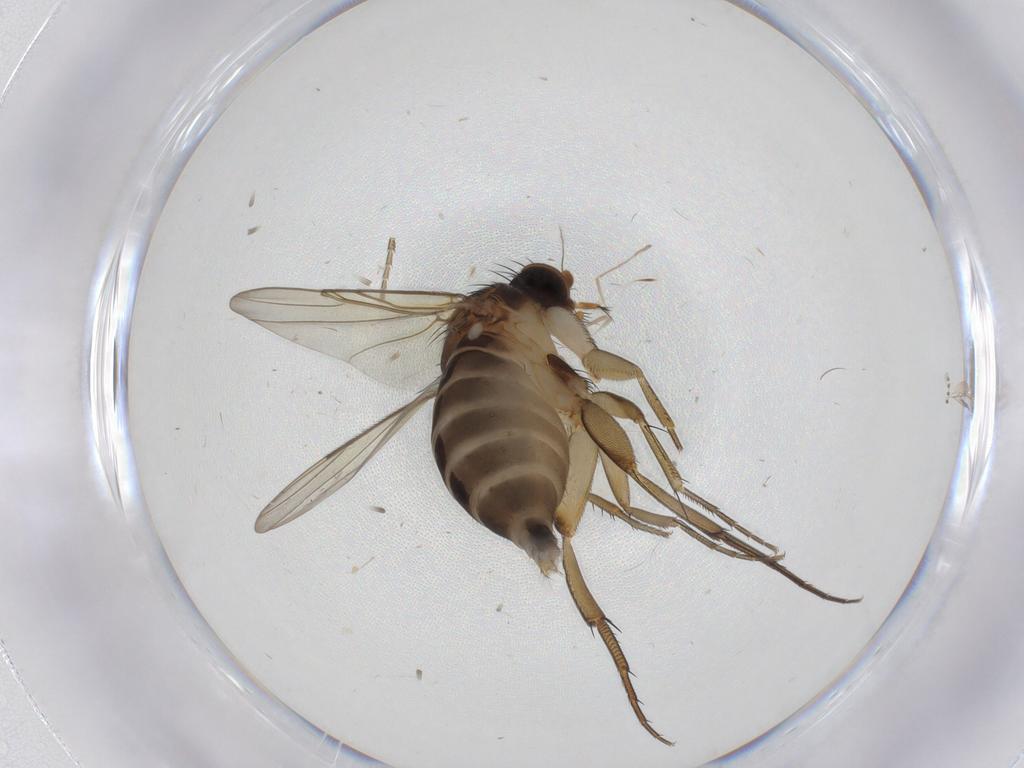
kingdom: Animalia
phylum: Arthropoda
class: Insecta
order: Diptera
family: Phoridae
